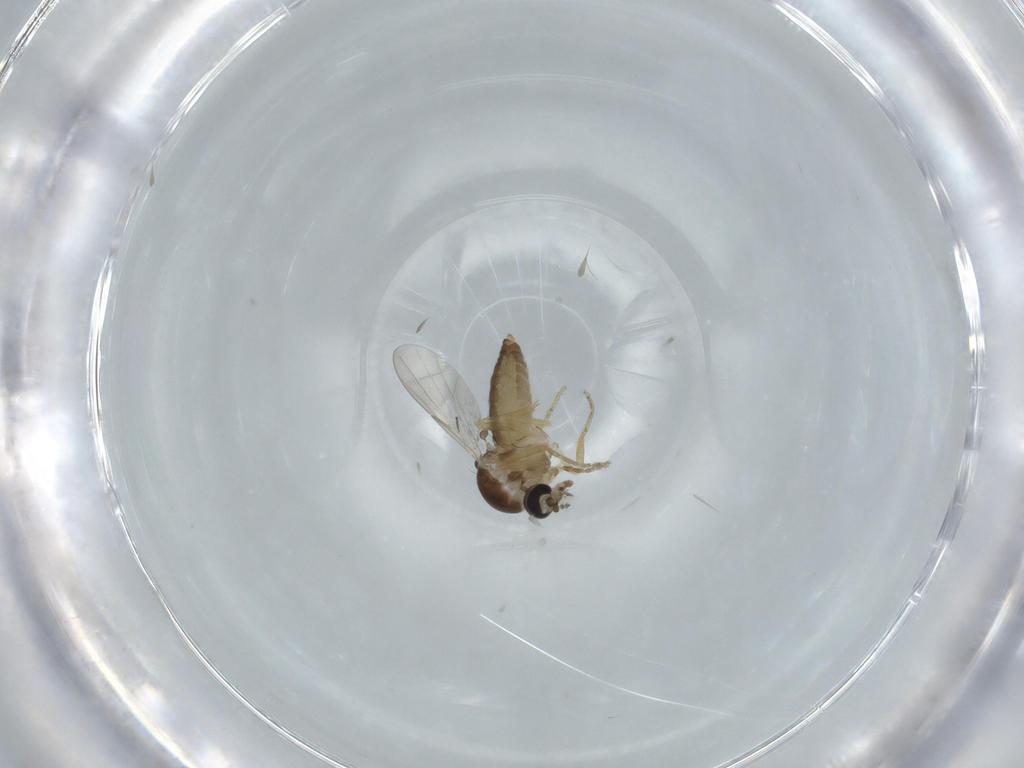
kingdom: Animalia
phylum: Arthropoda
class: Insecta
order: Diptera
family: Ceratopogonidae
